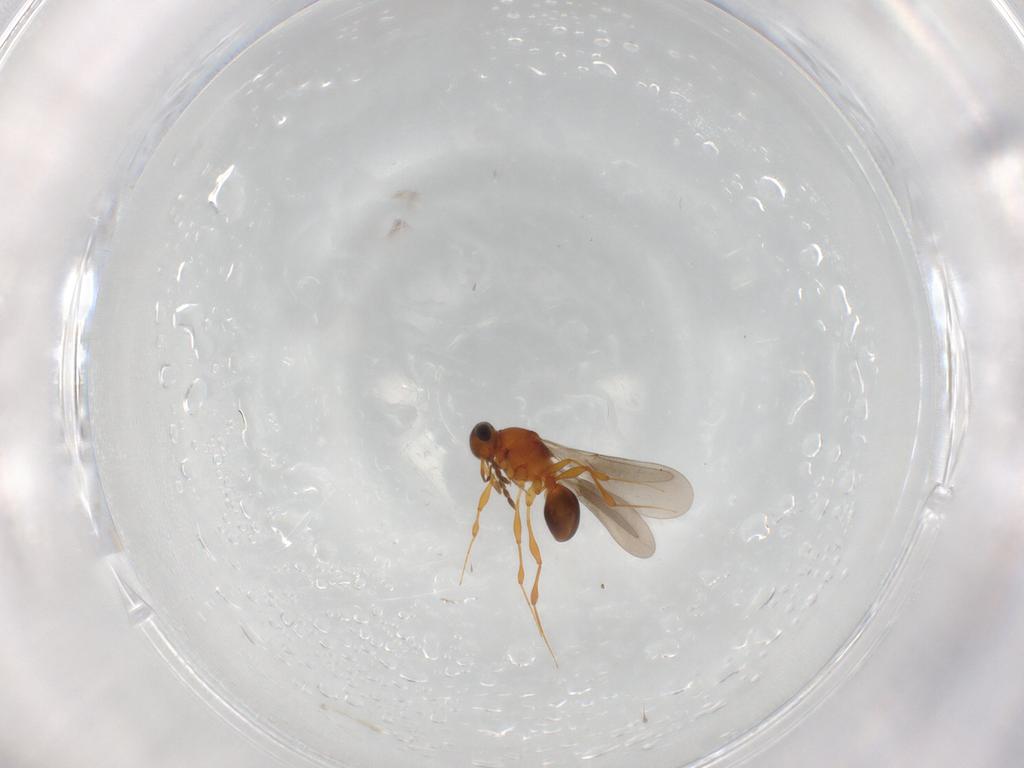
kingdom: Animalia
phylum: Arthropoda
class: Insecta
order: Hymenoptera
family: Platygastridae
